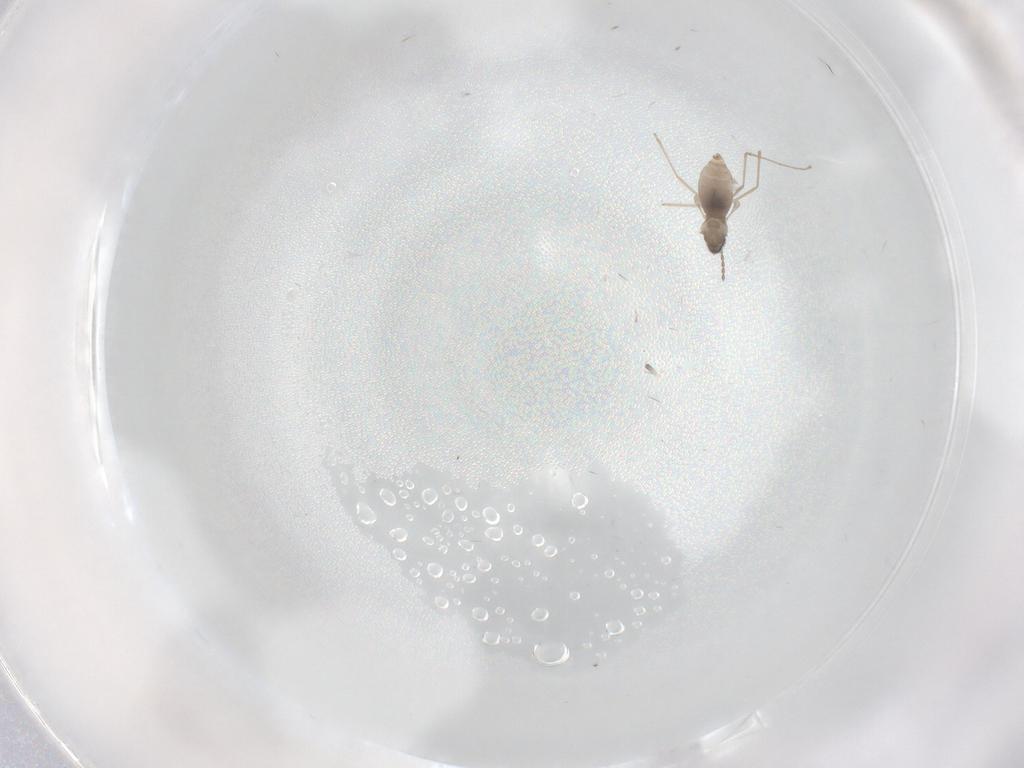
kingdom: Animalia
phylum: Arthropoda
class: Insecta
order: Diptera
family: Cecidomyiidae
